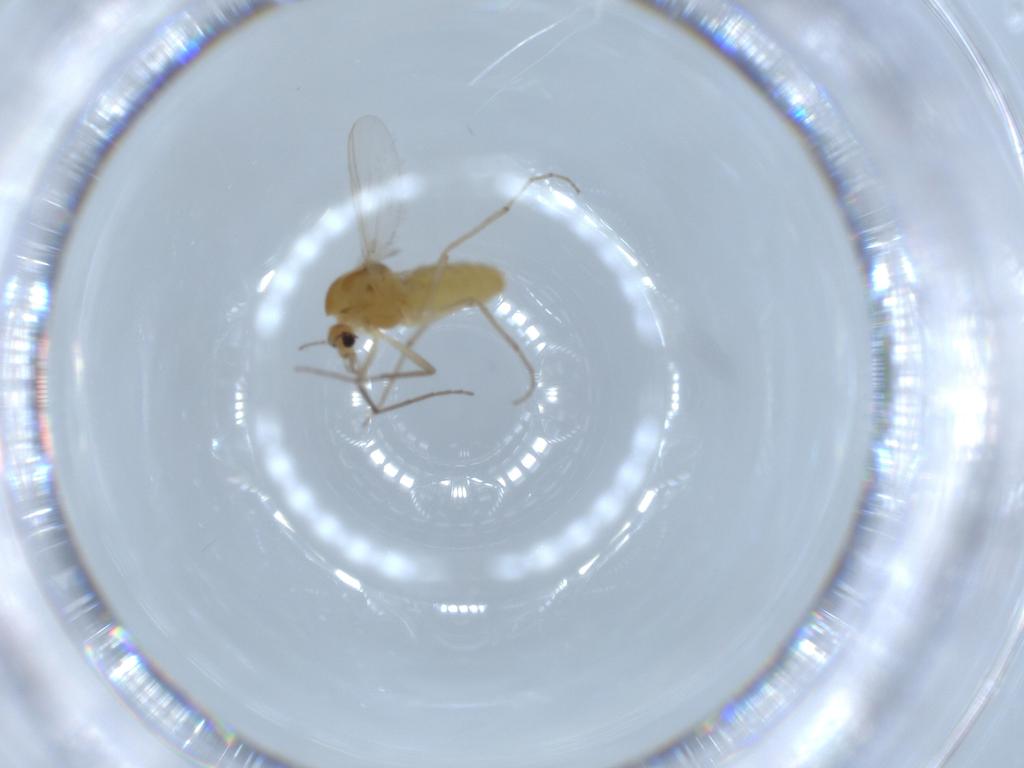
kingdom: Animalia
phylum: Arthropoda
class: Insecta
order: Diptera
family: Chironomidae
